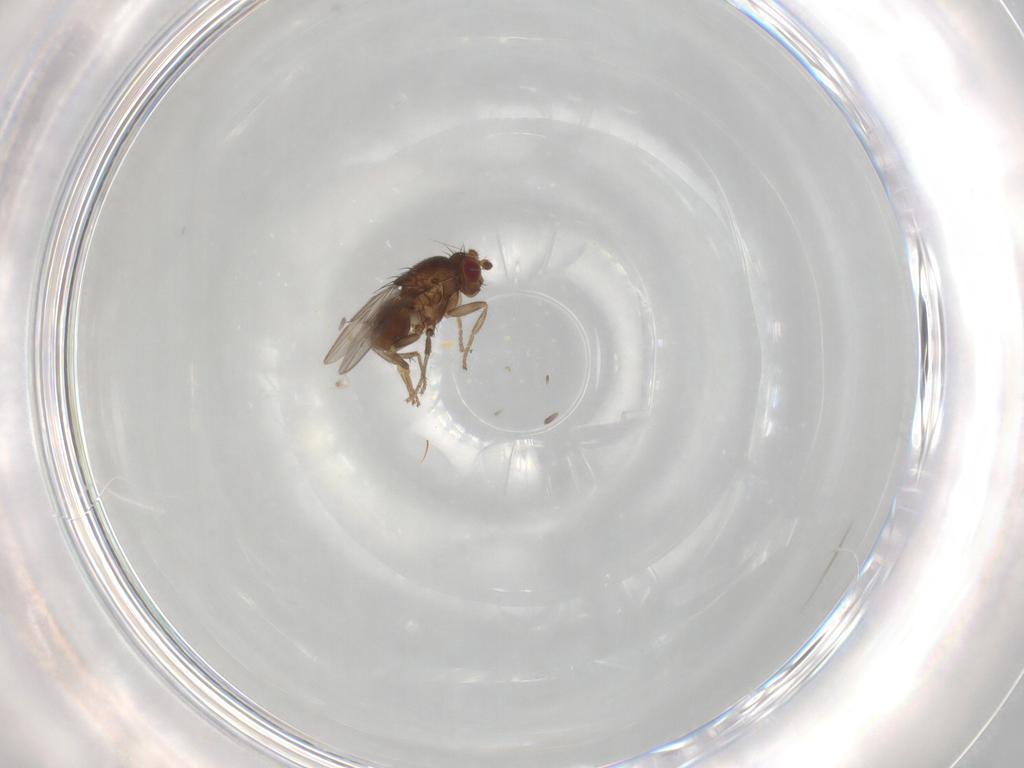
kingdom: Animalia
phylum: Arthropoda
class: Insecta
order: Diptera
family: Sphaeroceridae
